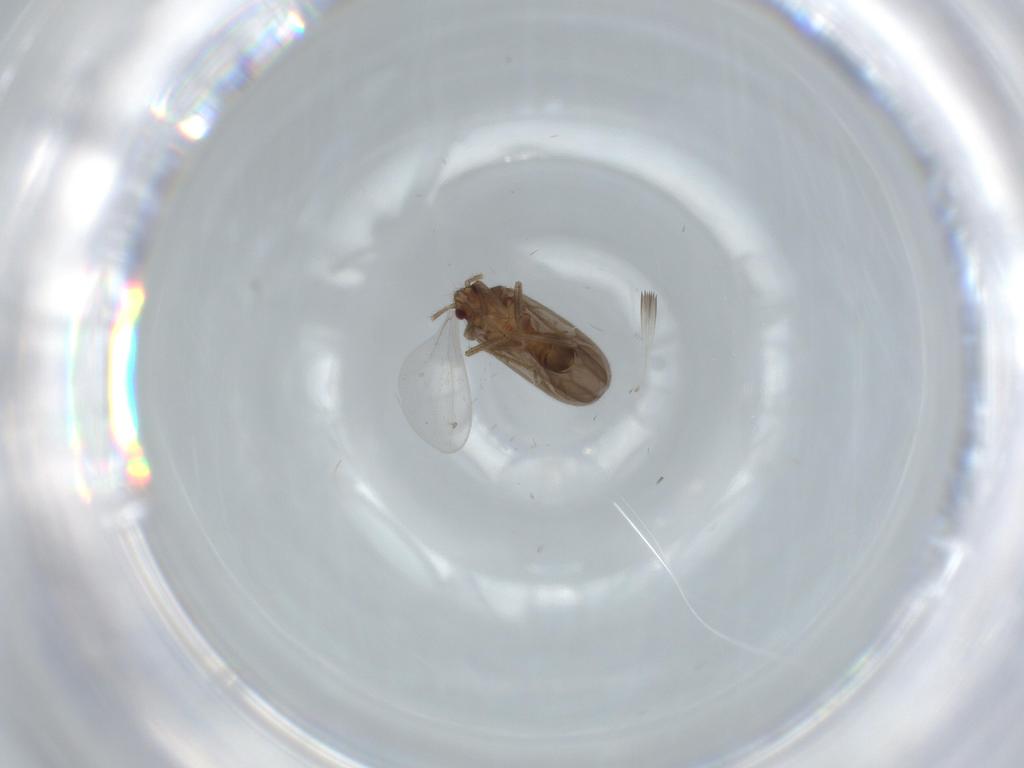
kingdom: Animalia
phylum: Arthropoda
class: Insecta
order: Hemiptera
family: Ceratocombidae
